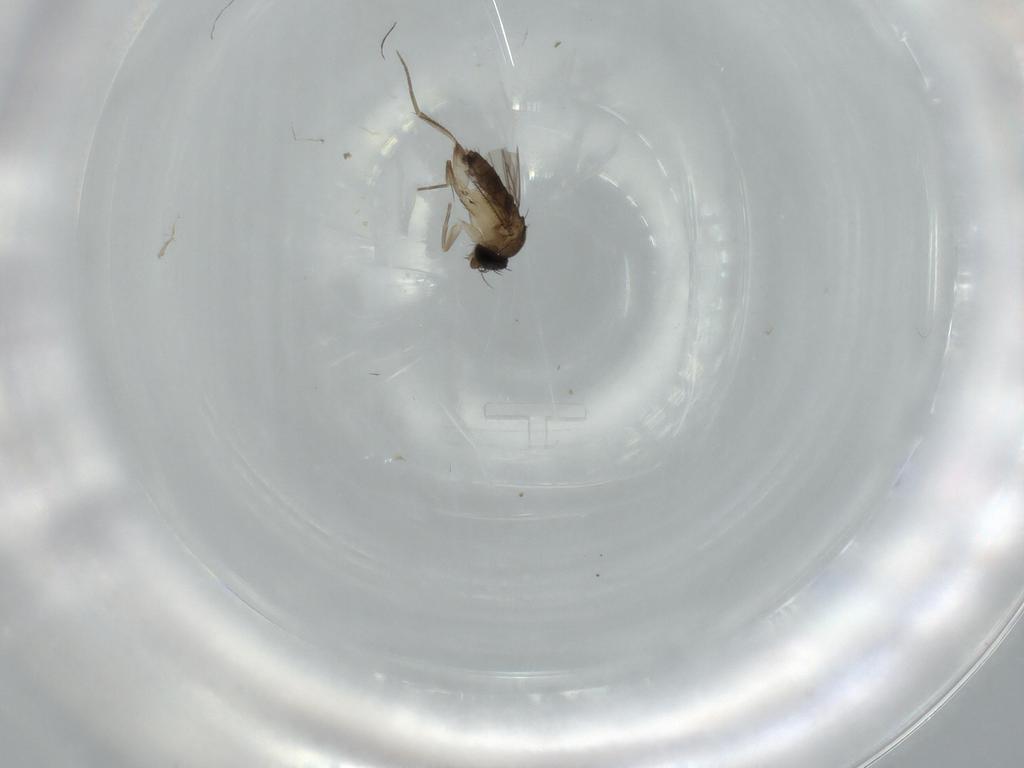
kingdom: Animalia
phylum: Arthropoda
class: Insecta
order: Diptera
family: Phoridae
